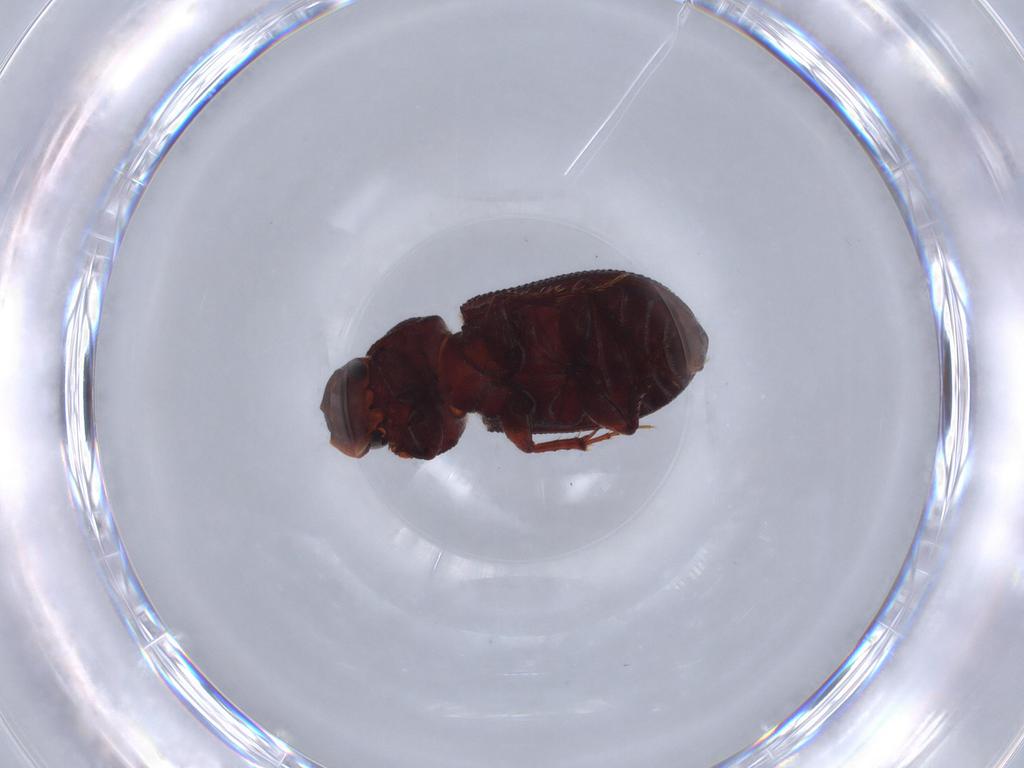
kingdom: Animalia
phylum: Arthropoda
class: Insecta
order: Coleoptera
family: Scarabaeidae
